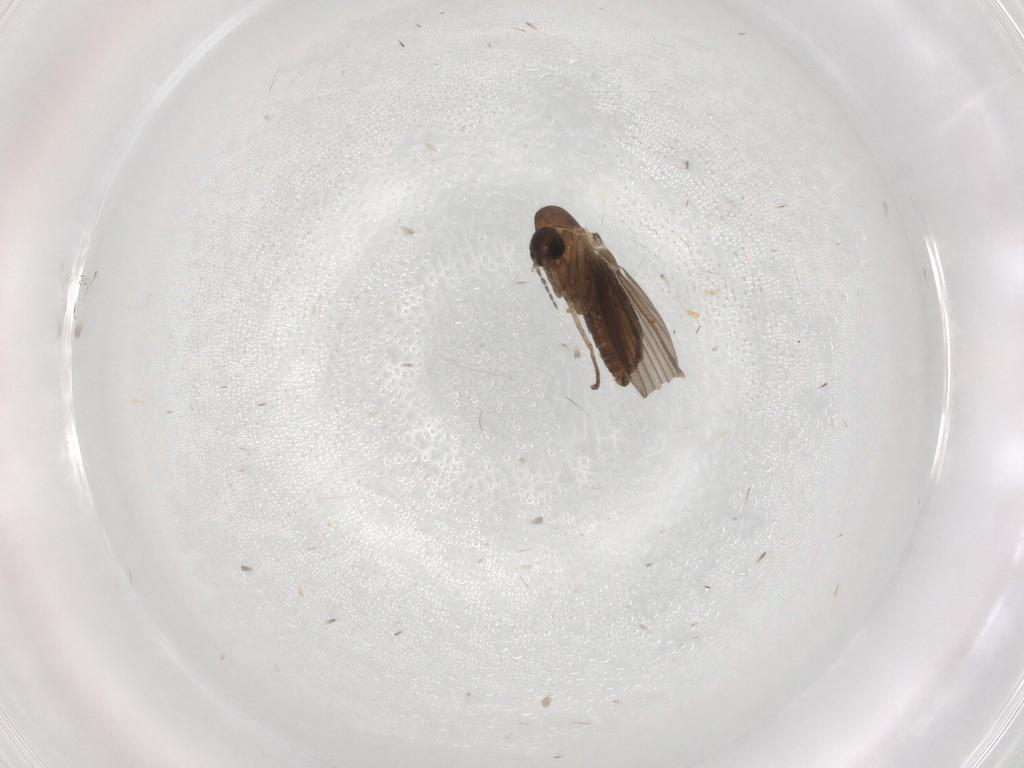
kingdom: Animalia
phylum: Arthropoda
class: Insecta
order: Diptera
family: Psychodidae
